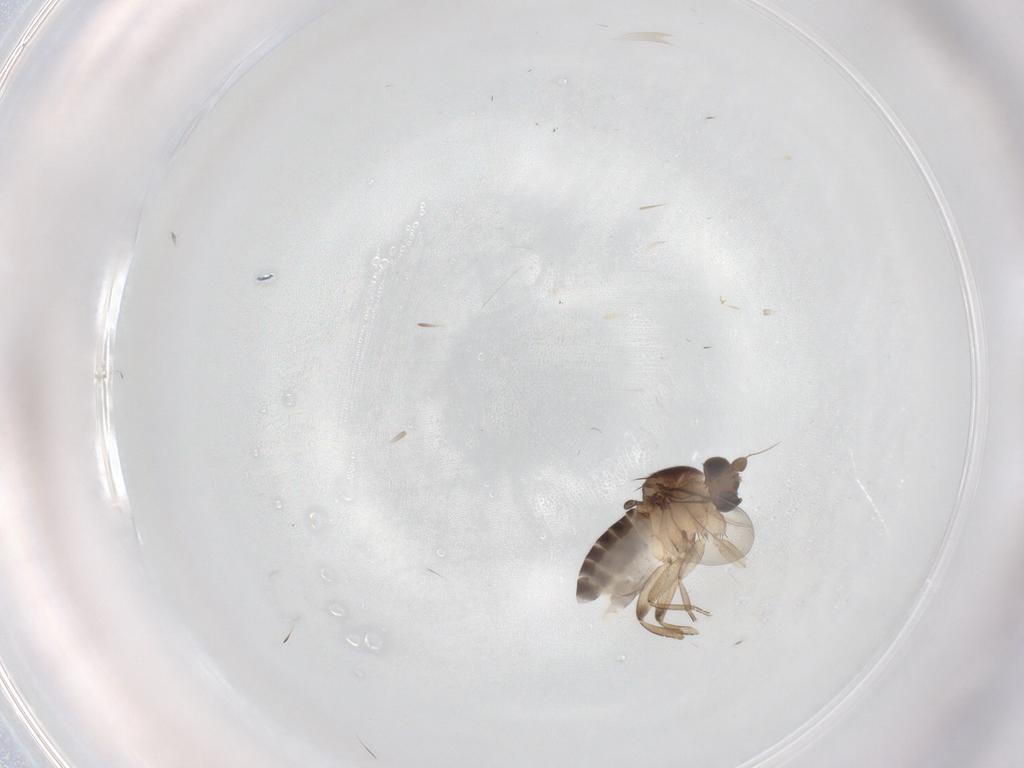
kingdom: Animalia
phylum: Arthropoda
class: Insecta
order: Diptera
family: Phoridae
